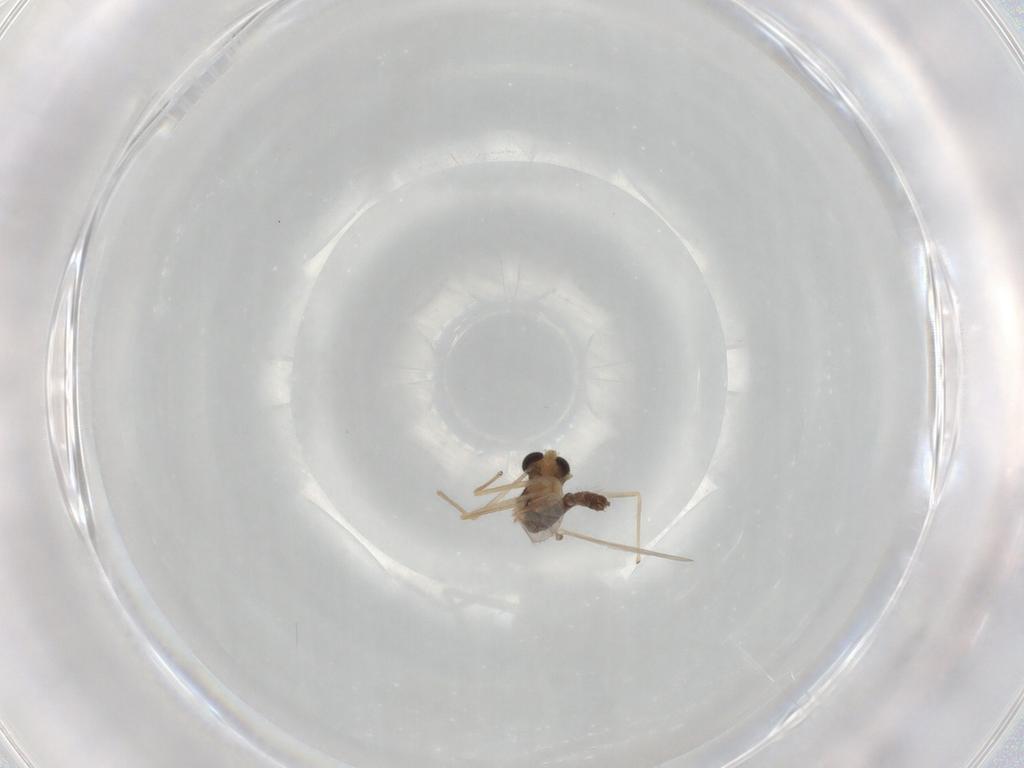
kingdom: Animalia
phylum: Arthropoda
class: Insecta
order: Diptera
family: Chironomidae
